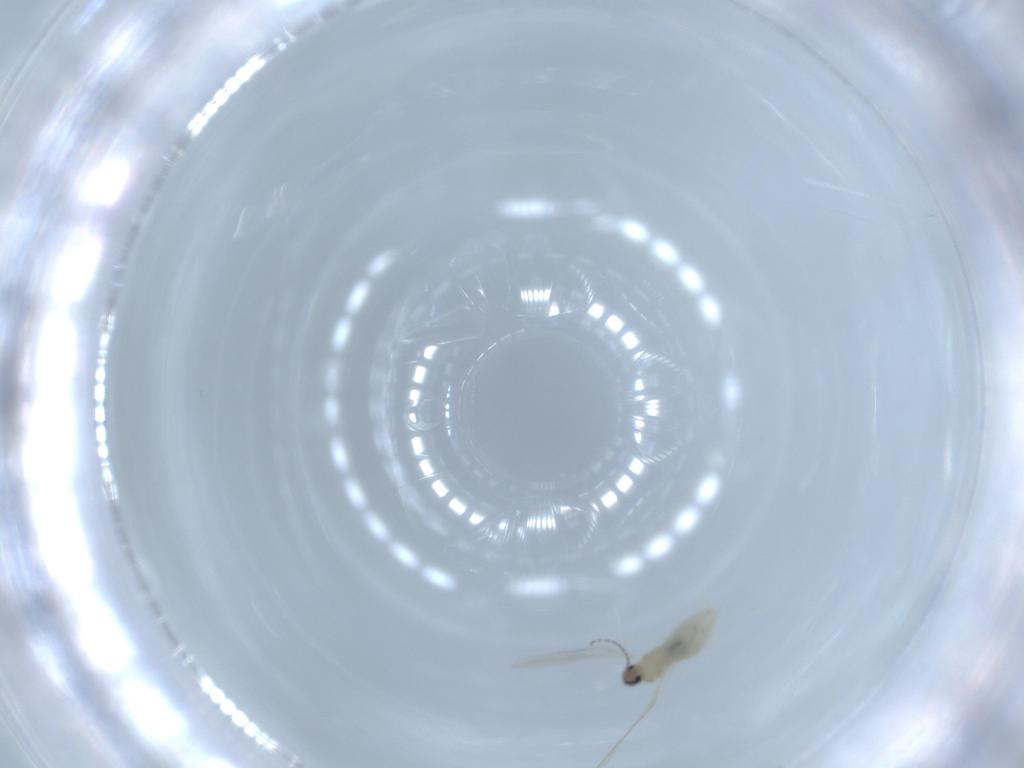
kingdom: Animalia
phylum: Arthropoda
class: Insecta
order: Diptera
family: Cecidomyiidae
